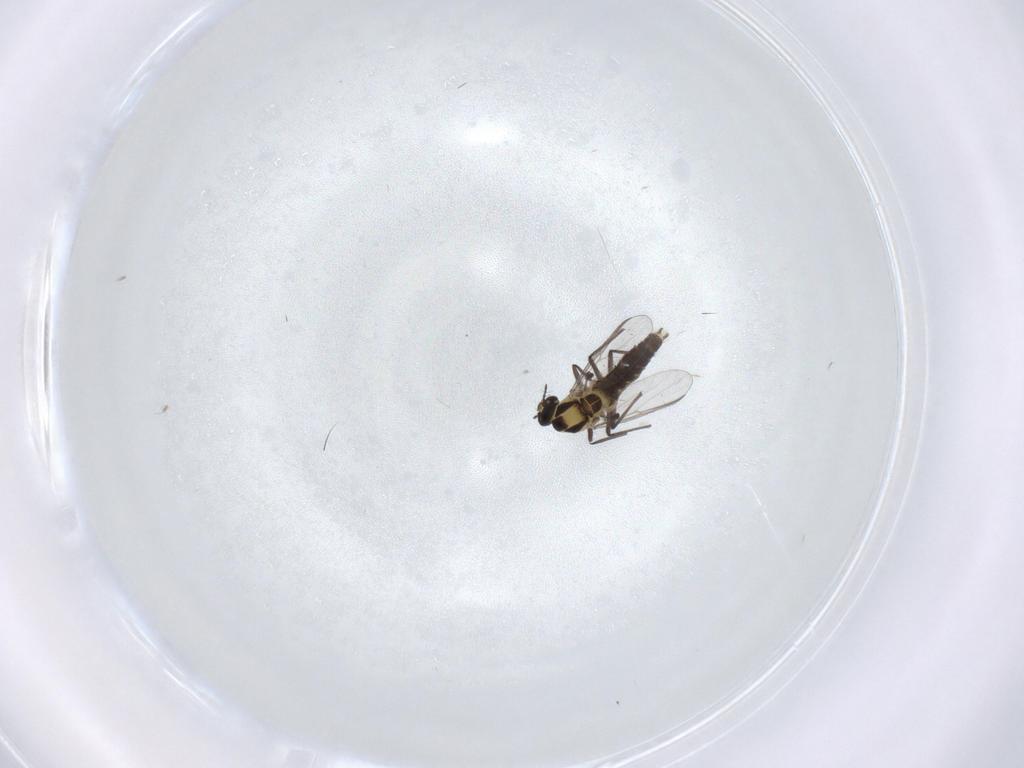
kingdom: Animalia
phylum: Arthropoda
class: Insecta
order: Diptera
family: Chironomidae
